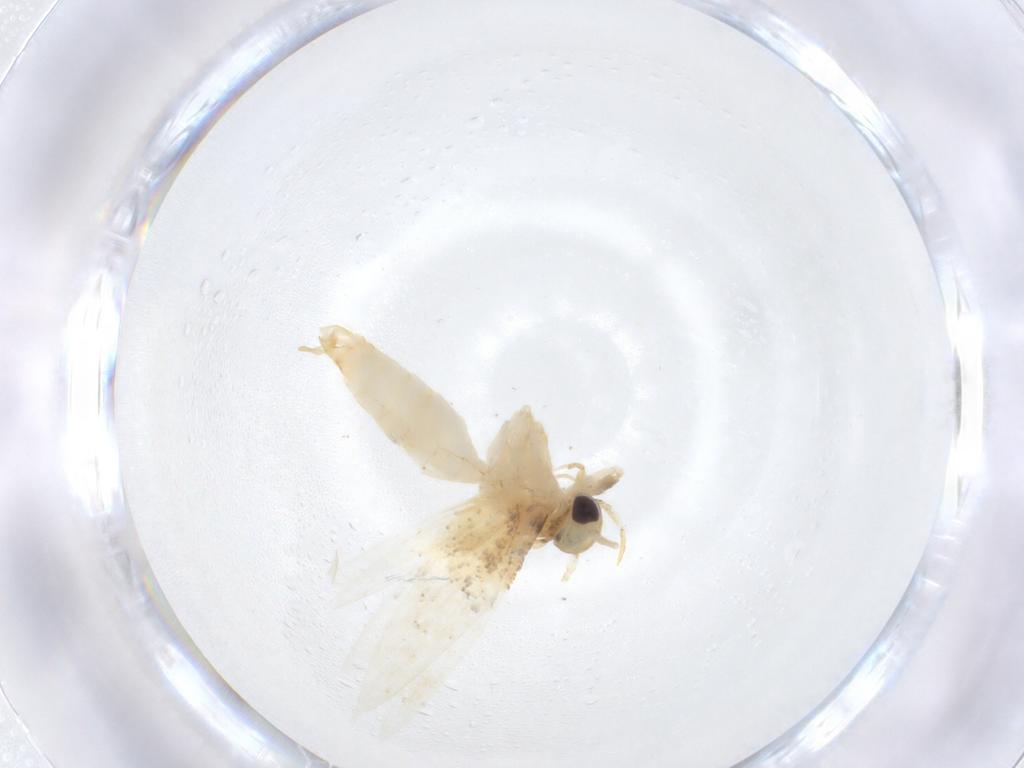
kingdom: Animalia
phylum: Arthropoda
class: Insecta
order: Lepidoptera
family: Erebidae
